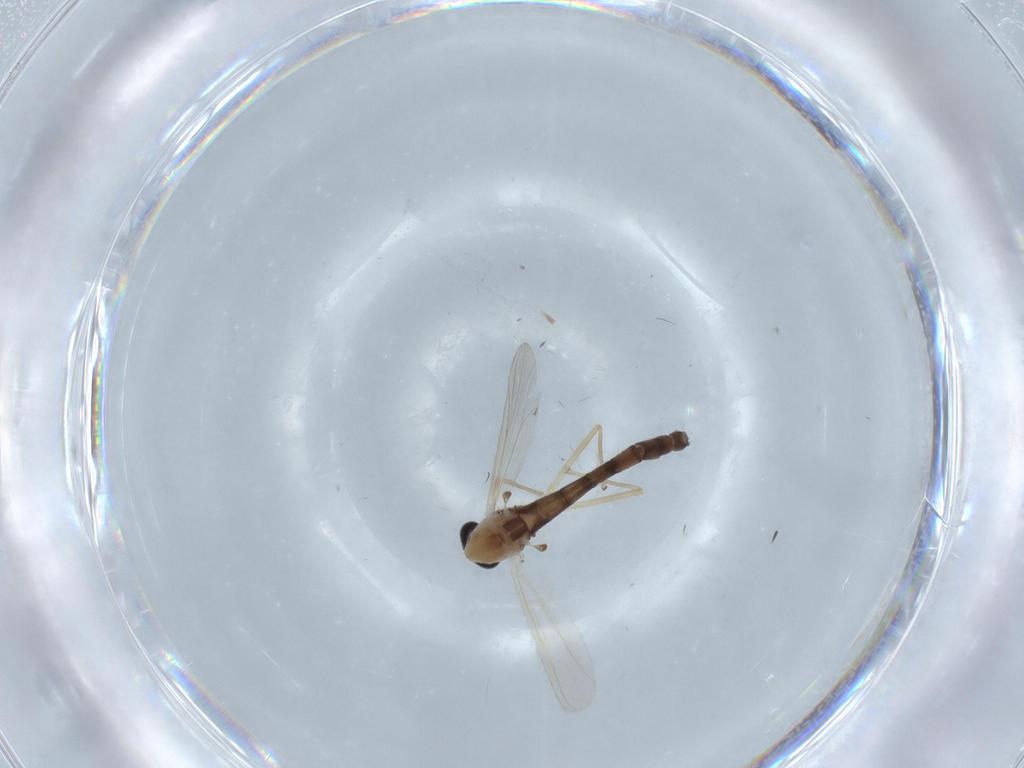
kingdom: Animalia
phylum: Arthropoda
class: Insecta
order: Diptera
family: Chironomidae
